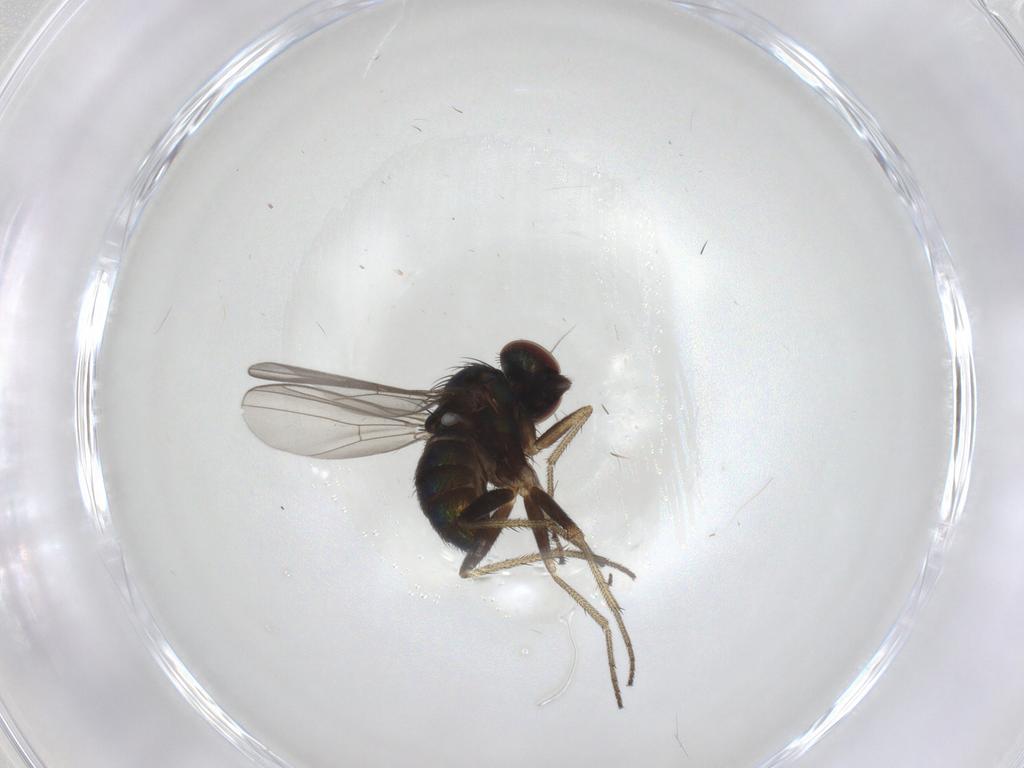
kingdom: Animalia
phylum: Arthropoda
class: Insecta
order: Diptera
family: Dolichopodidae
